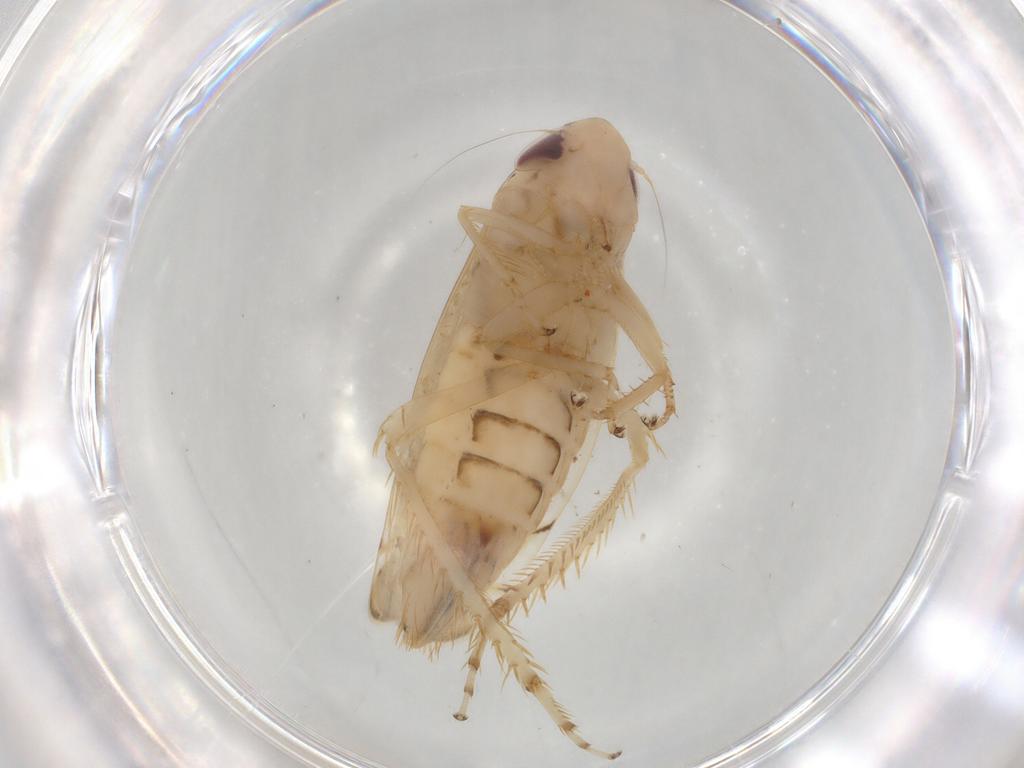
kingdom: Animalia
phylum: Arthropoda
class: Insecta
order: Hemiptera
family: Cicadellidae
